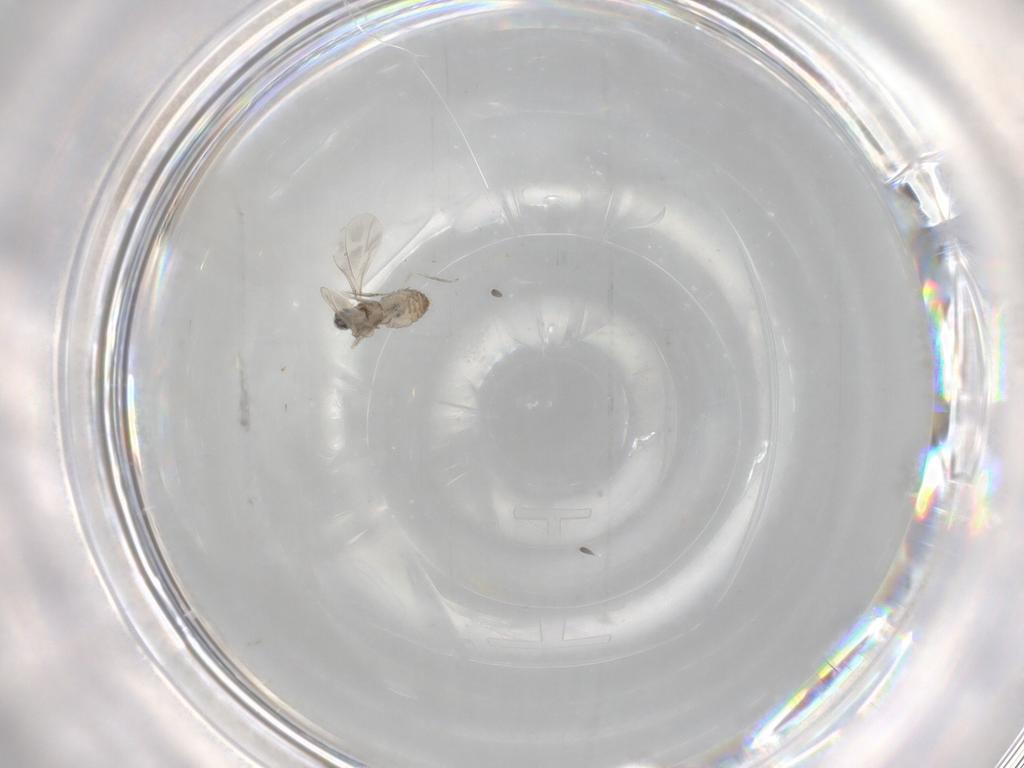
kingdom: Animalia
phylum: Arthropoda
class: Insecta
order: Diptera
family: Cecidomyiidae
